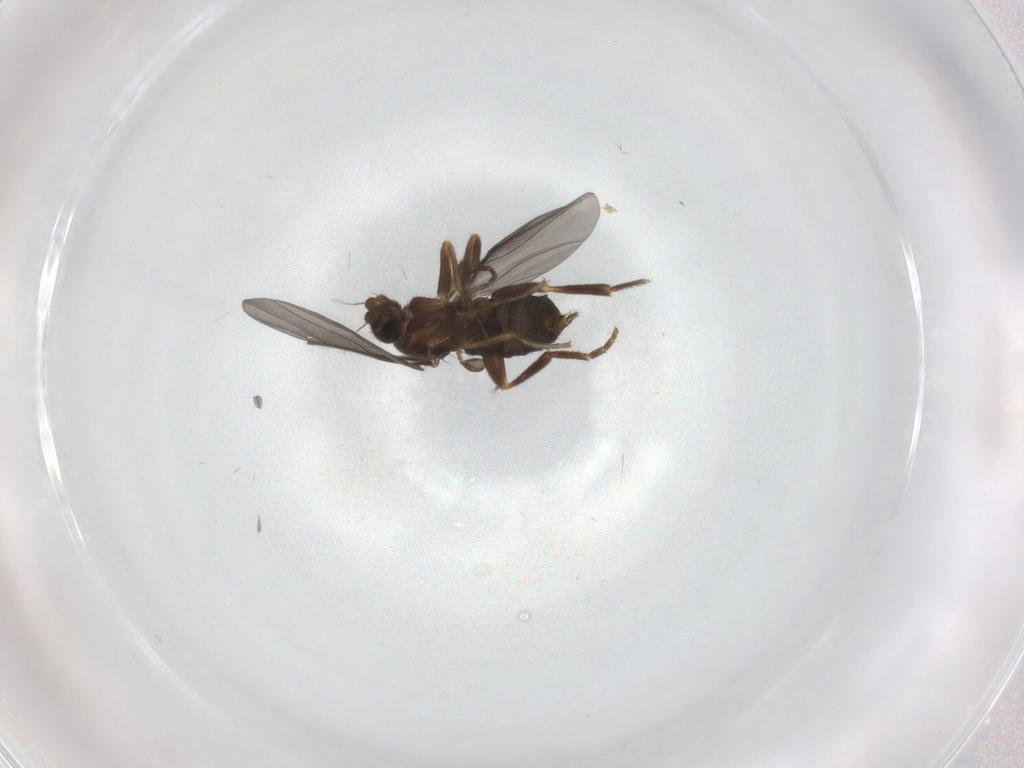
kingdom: Animalia
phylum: Arthropoda
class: Insecta
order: Diptera
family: Phoridae
